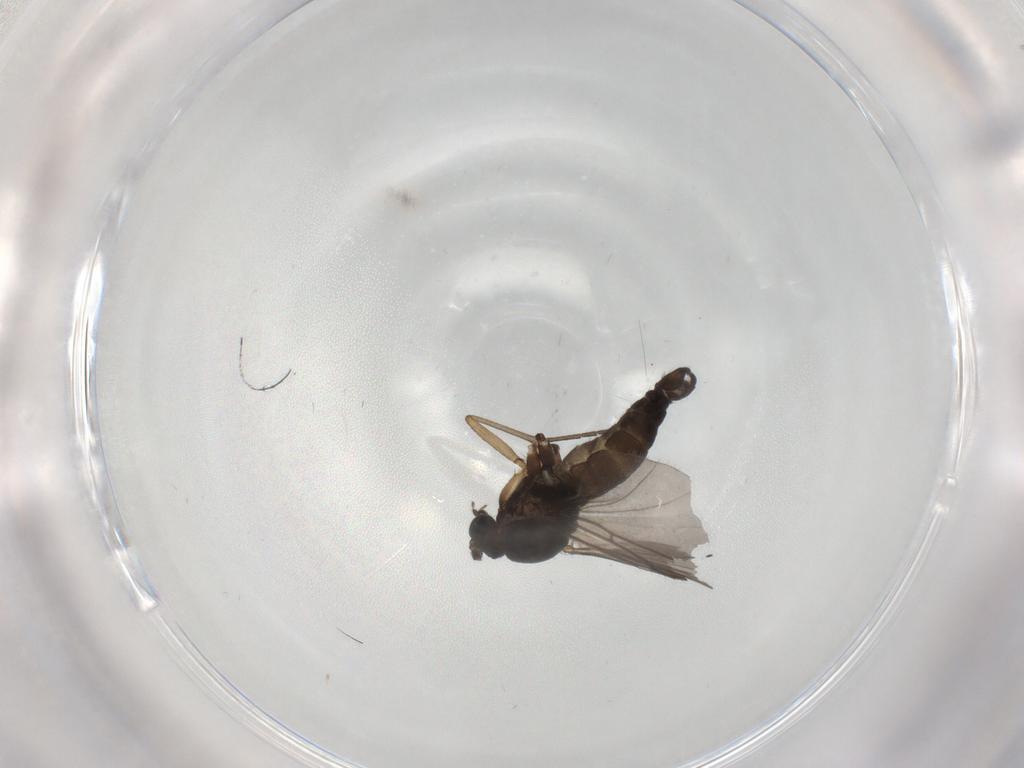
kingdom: Animalia
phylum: Arthropoda
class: Insecta
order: Diptera
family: Sciaridae
